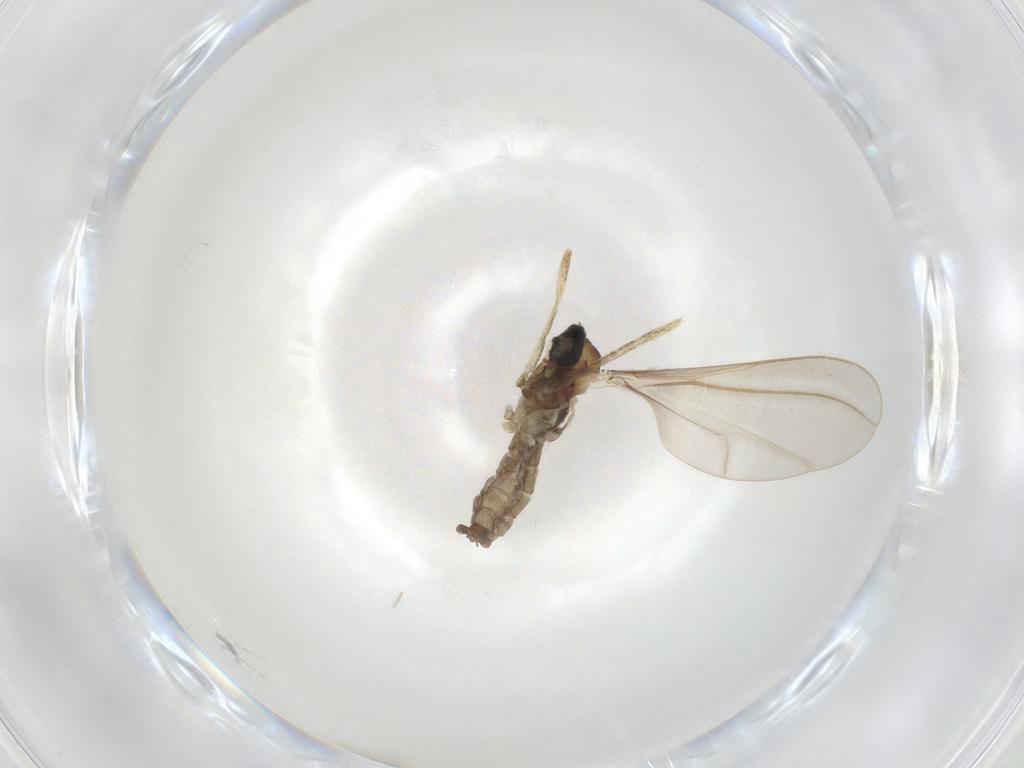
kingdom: Animalia
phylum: Arthropoda
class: Insecta
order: Diptera
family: Cecidomyiidae
